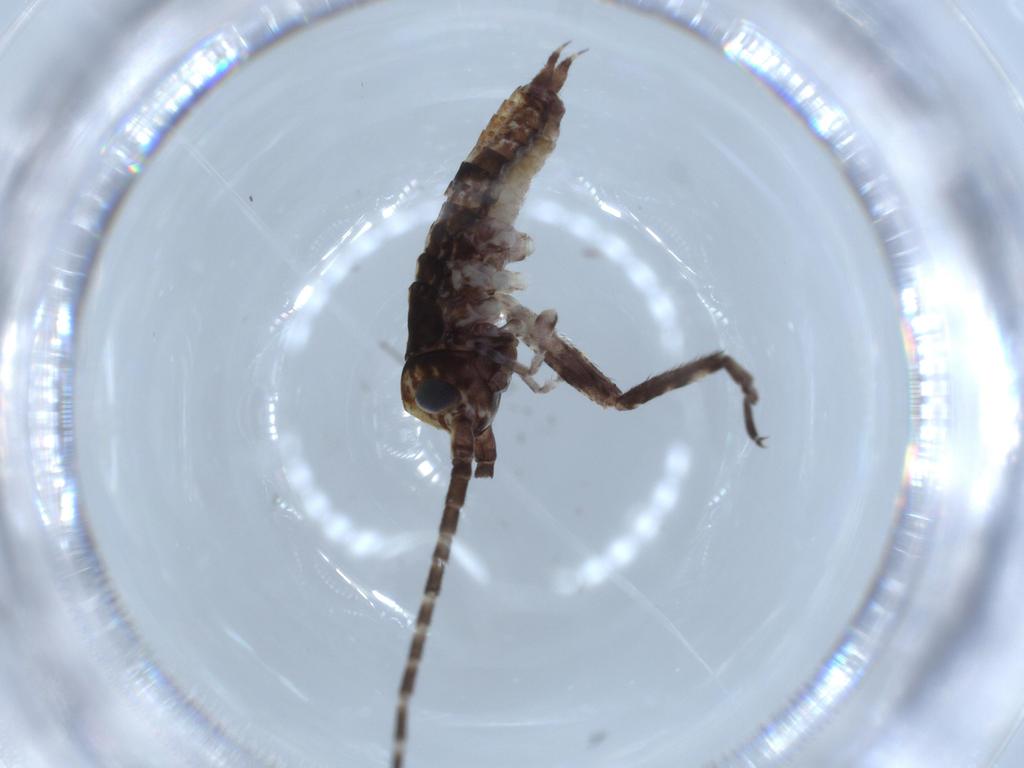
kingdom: Animalia
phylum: Arthropoda
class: Insecta
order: Orthoptera
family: Gryllidae
